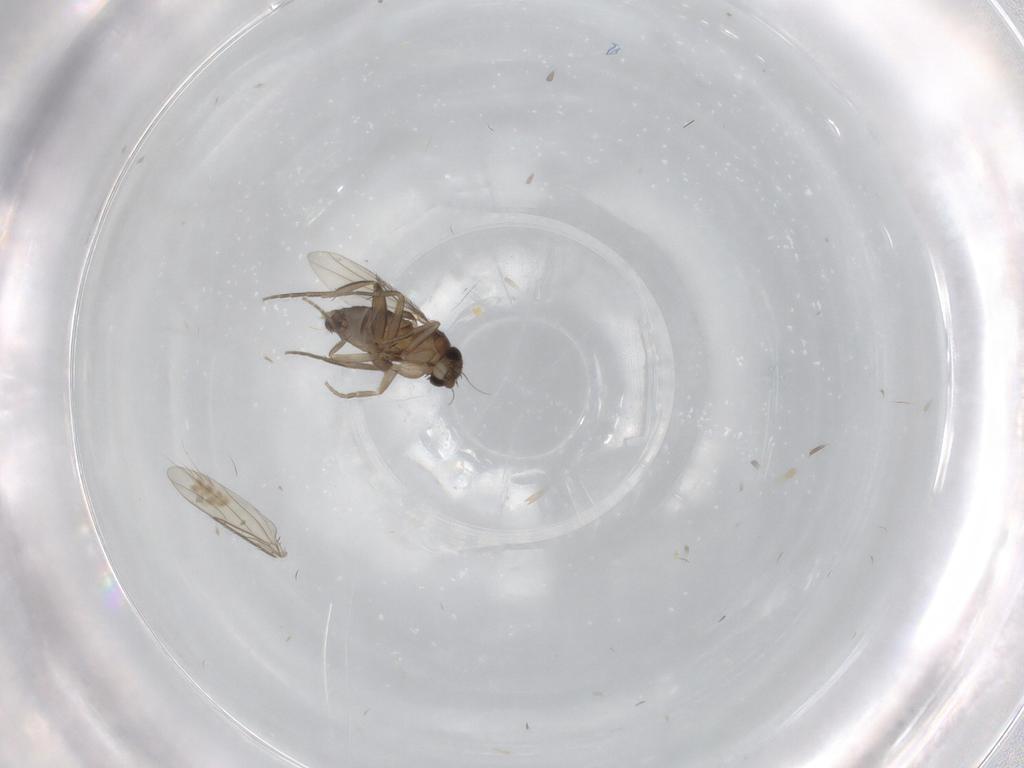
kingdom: Animalia
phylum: Arthropoda
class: Insecta
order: Diptera
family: Phoridae
